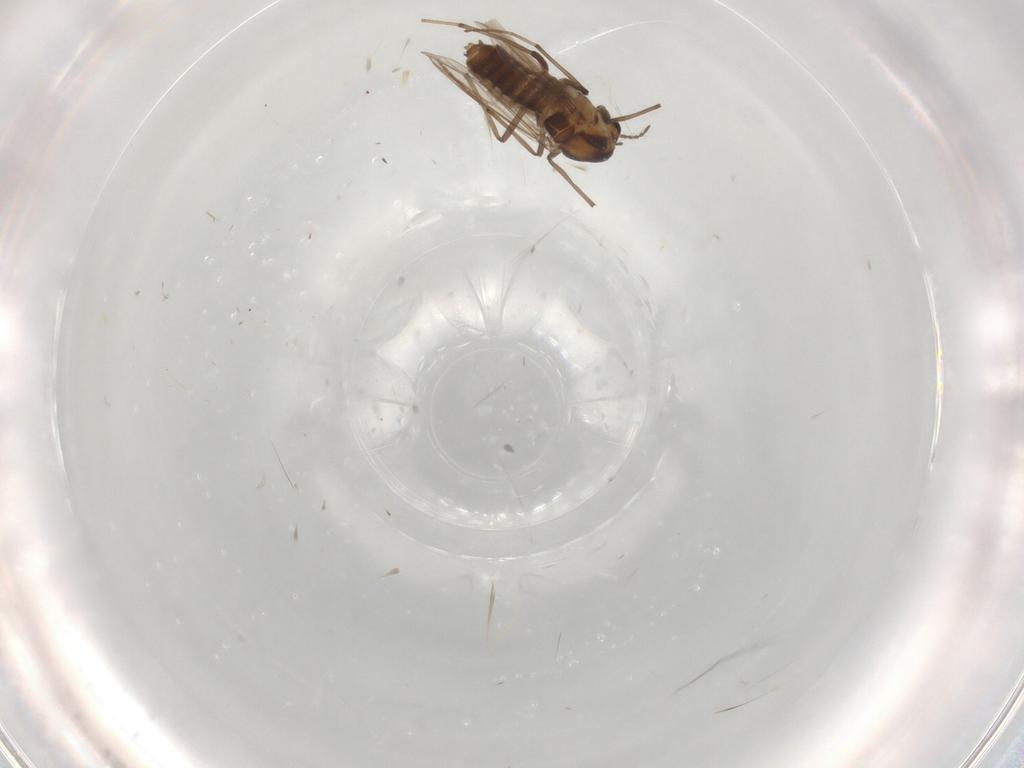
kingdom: Animalia
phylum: Arthropoda
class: Insecta
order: Diptera
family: Chironomidae
